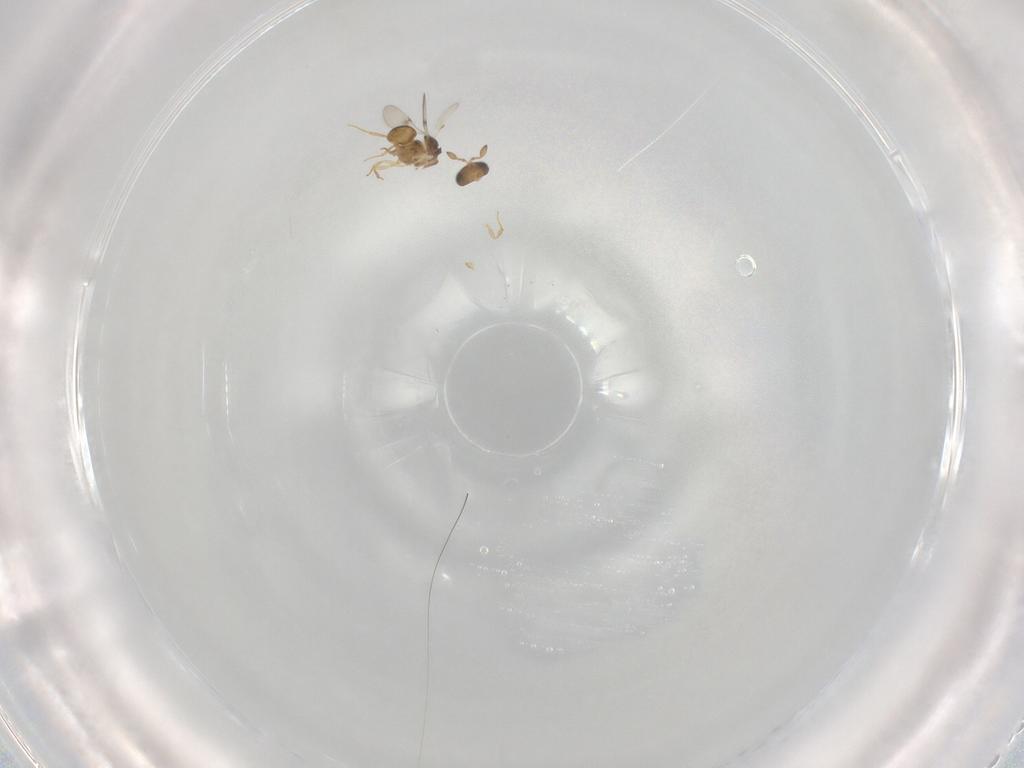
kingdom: Animalia
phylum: Arthropoda
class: Insecta
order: Hymenoptera
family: Scelionidae
